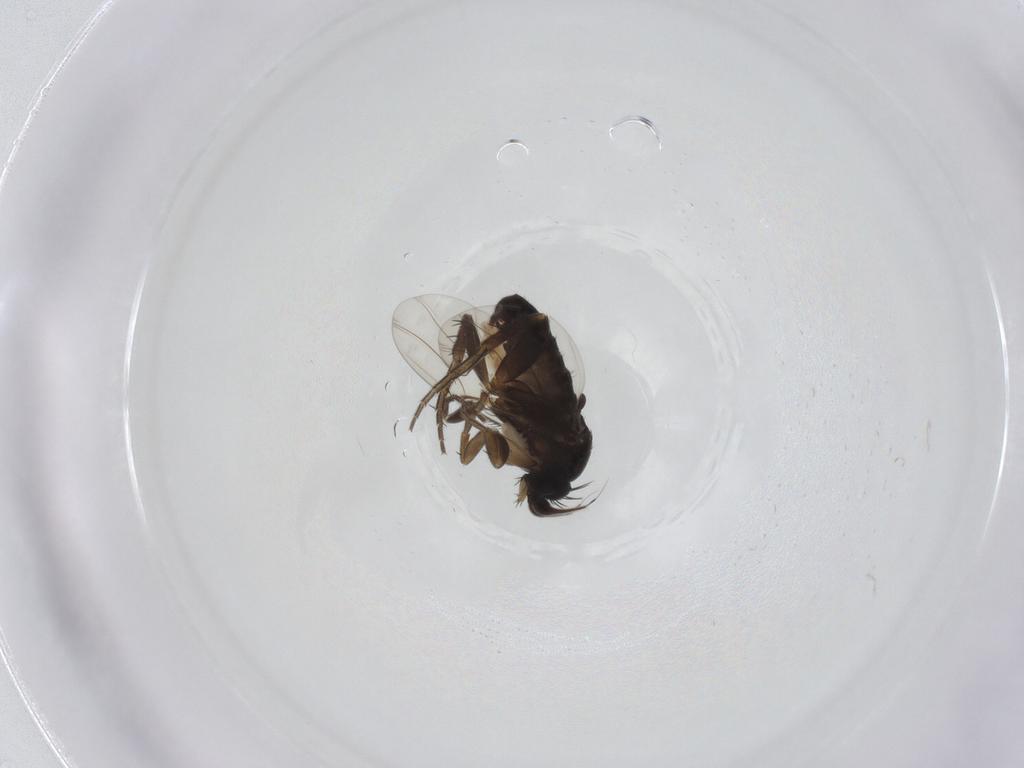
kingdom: Animalia
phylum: Arthropoda
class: Insecta
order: Diptera
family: Phoridae
